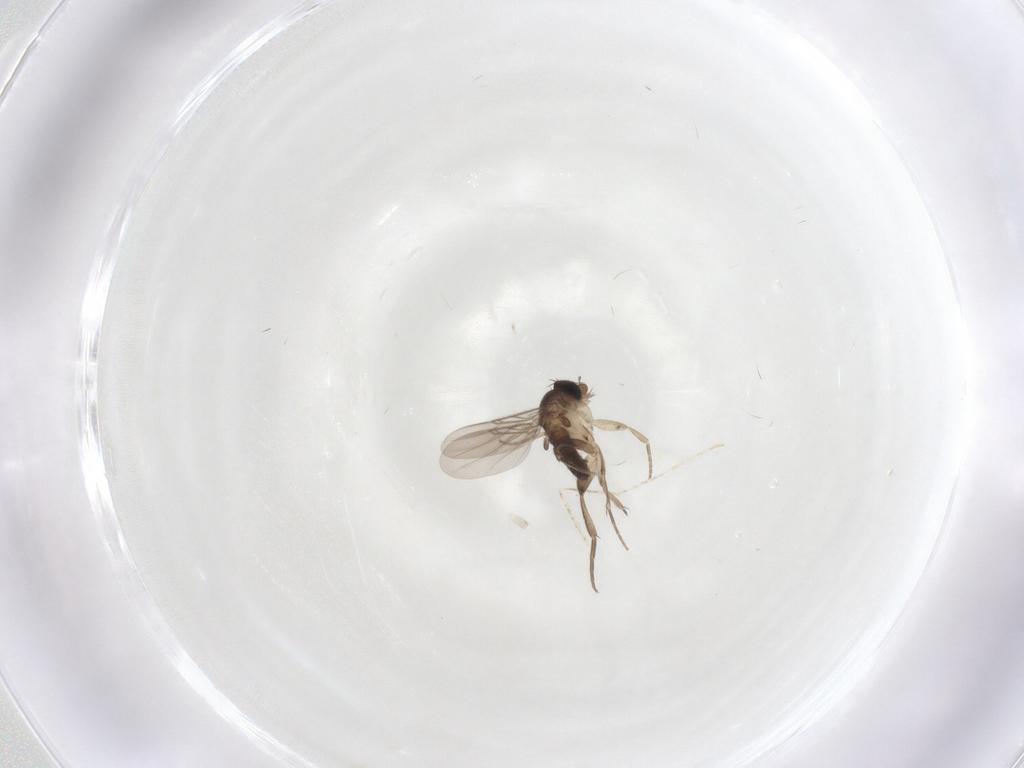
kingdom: Animalia
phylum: Arthropoda
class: Insecta
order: Diptera
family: Phoridae
